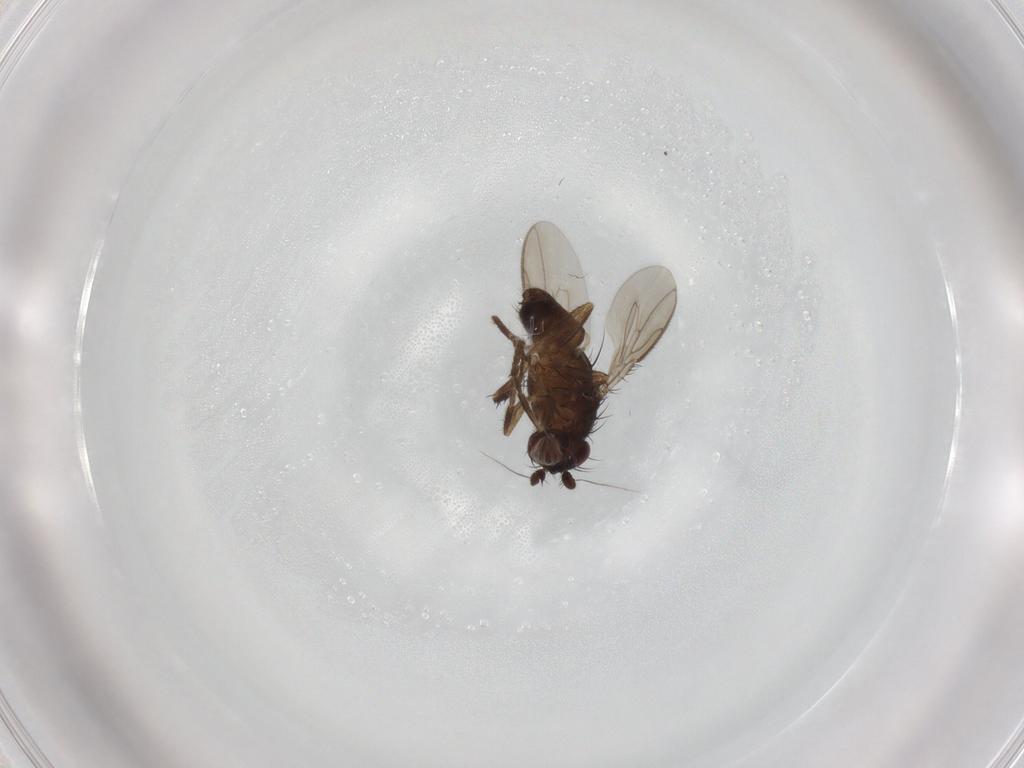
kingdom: Animalia
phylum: Arthropoda
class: Insecta
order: Diptera
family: Sphaeroceridae
